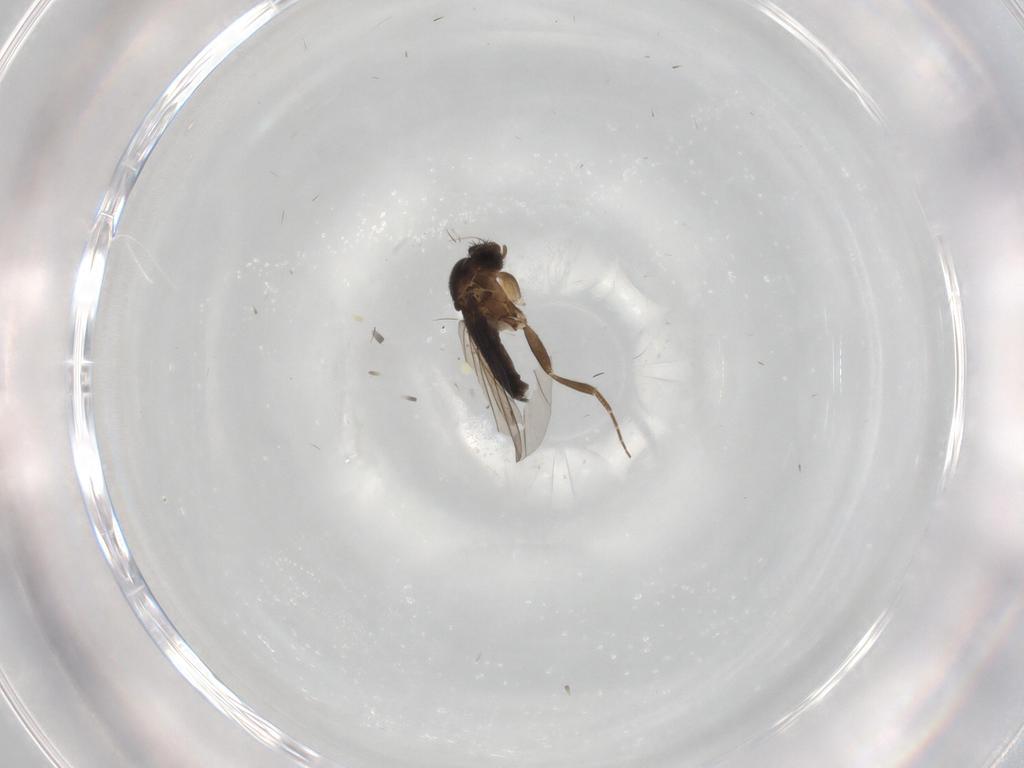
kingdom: Animalia
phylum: Arthropoda
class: Insecta
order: Diptera
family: Phoridae
